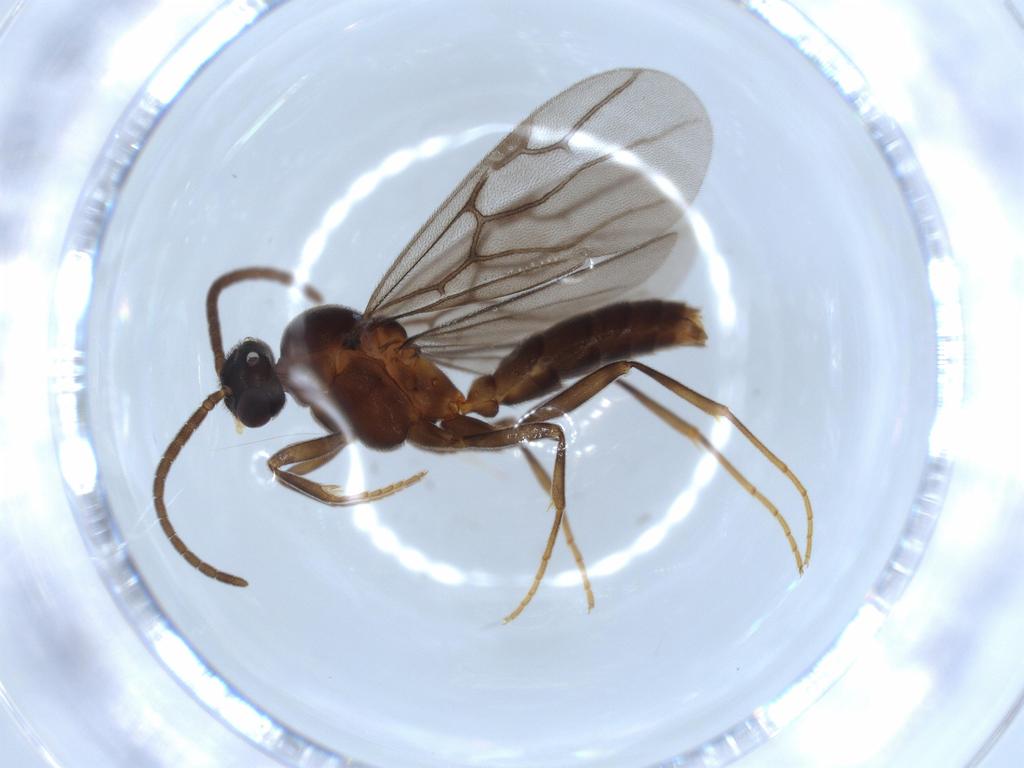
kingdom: Animalia
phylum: Arthropoda
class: Insecta
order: Hymenoptera
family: Formicidae
